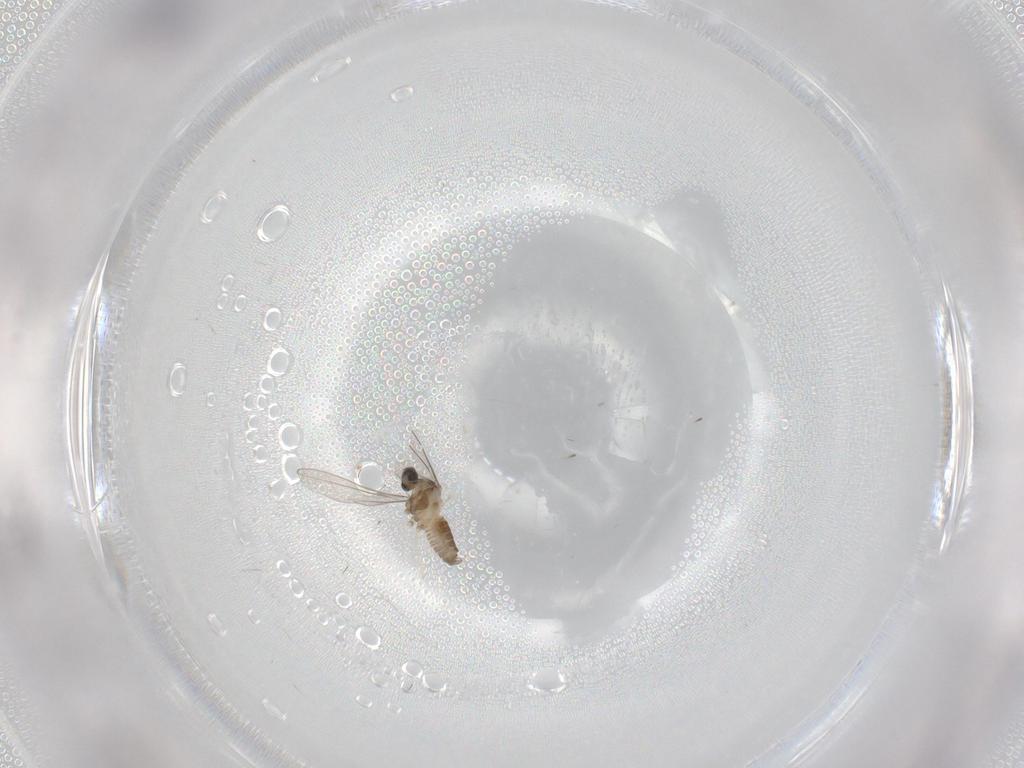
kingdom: Animalia
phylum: Arthropoda
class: Insecta
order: Diptera
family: Cecidomyiidae
